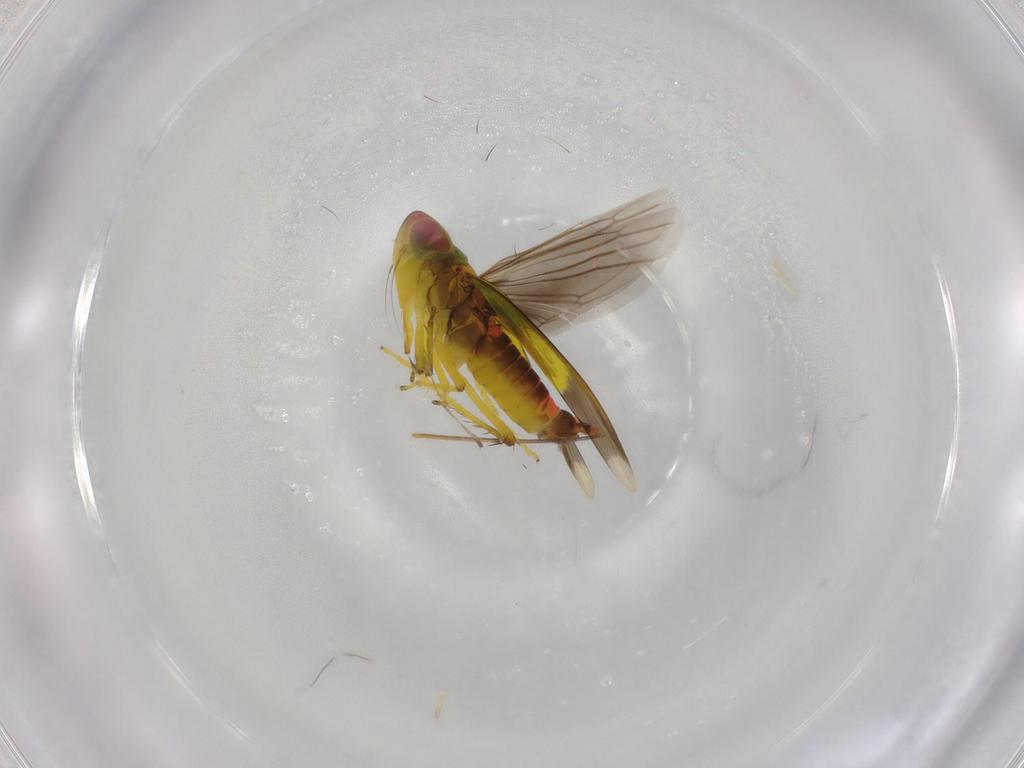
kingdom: Animalia
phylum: Arthropoda
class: Insecta
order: Hemiptera
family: Cicadellidae
